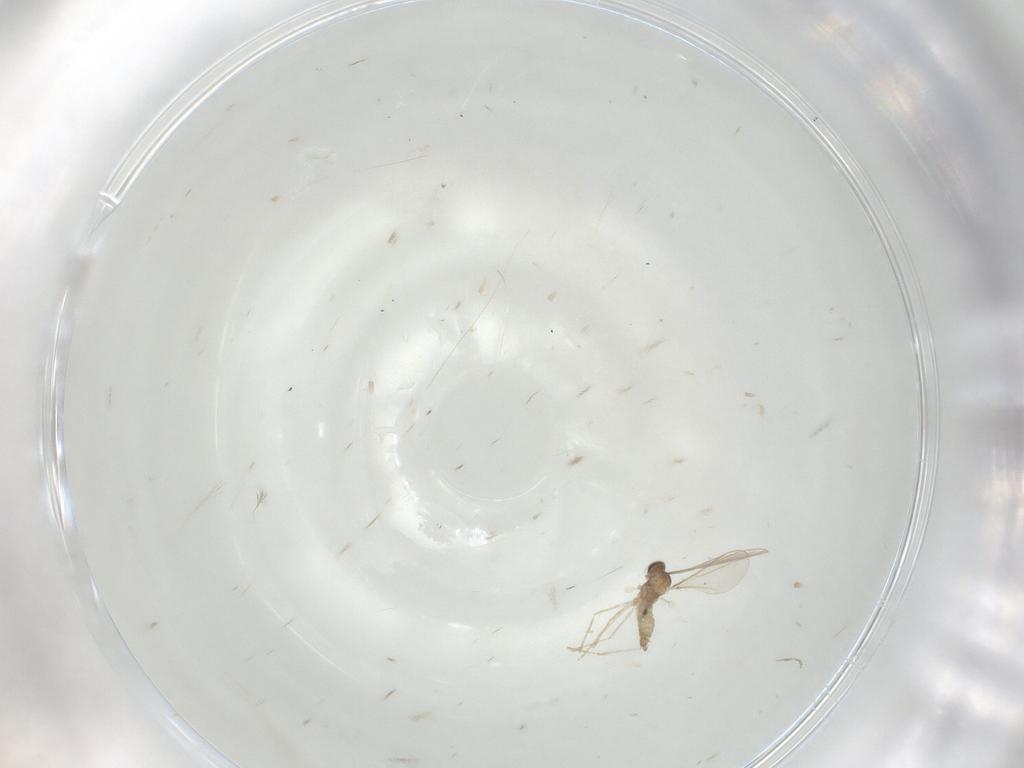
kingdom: Animalia
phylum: Arthropoda
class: Insecta
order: Diptera
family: Cecidomyiidae
